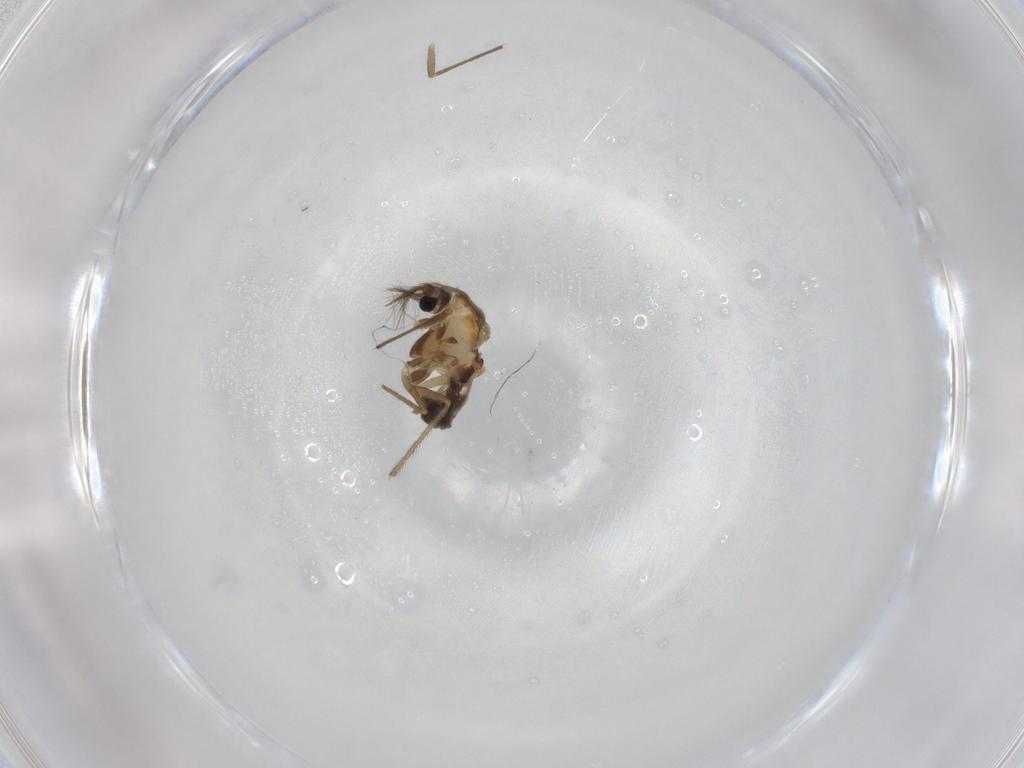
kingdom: Animalia
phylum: Arthropoda
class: Insecta
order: Diptera
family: Chironomidae
